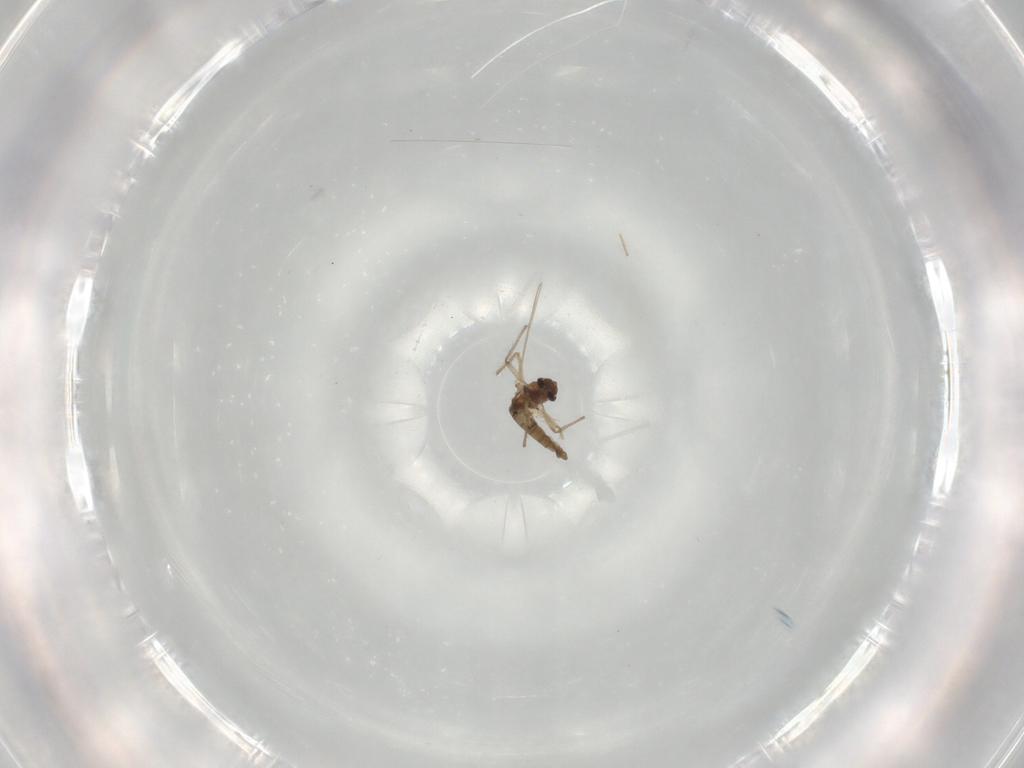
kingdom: Animalia
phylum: Arthropoda
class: Insecta
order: Diptera
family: Chironomidae
